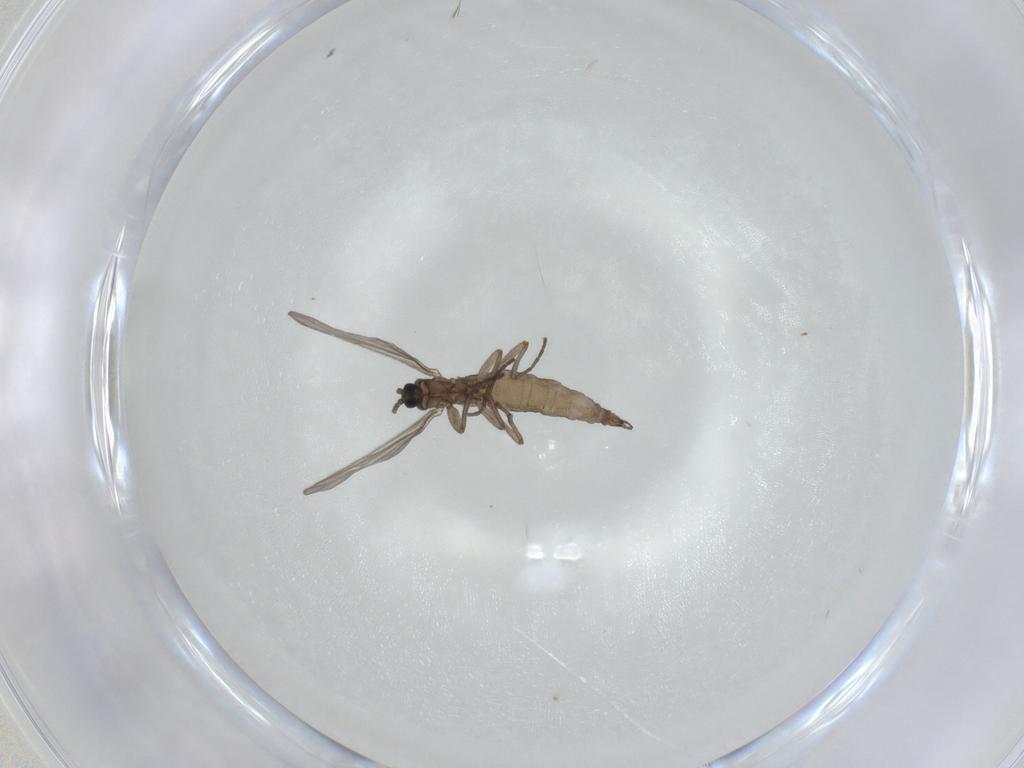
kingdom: Animalia
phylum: Arthropoda
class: Insecta
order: Diptera
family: Sciaridae
